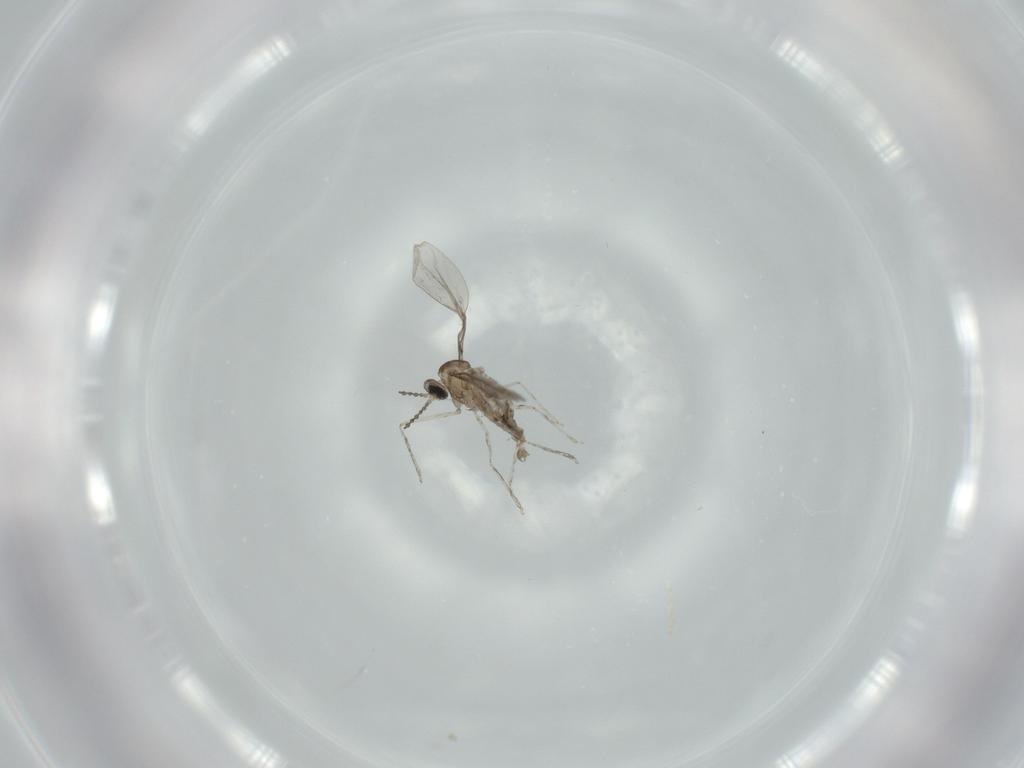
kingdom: Animalia
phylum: Arthropoda
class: Insecta
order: Diptera
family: Cecidomyiidae
